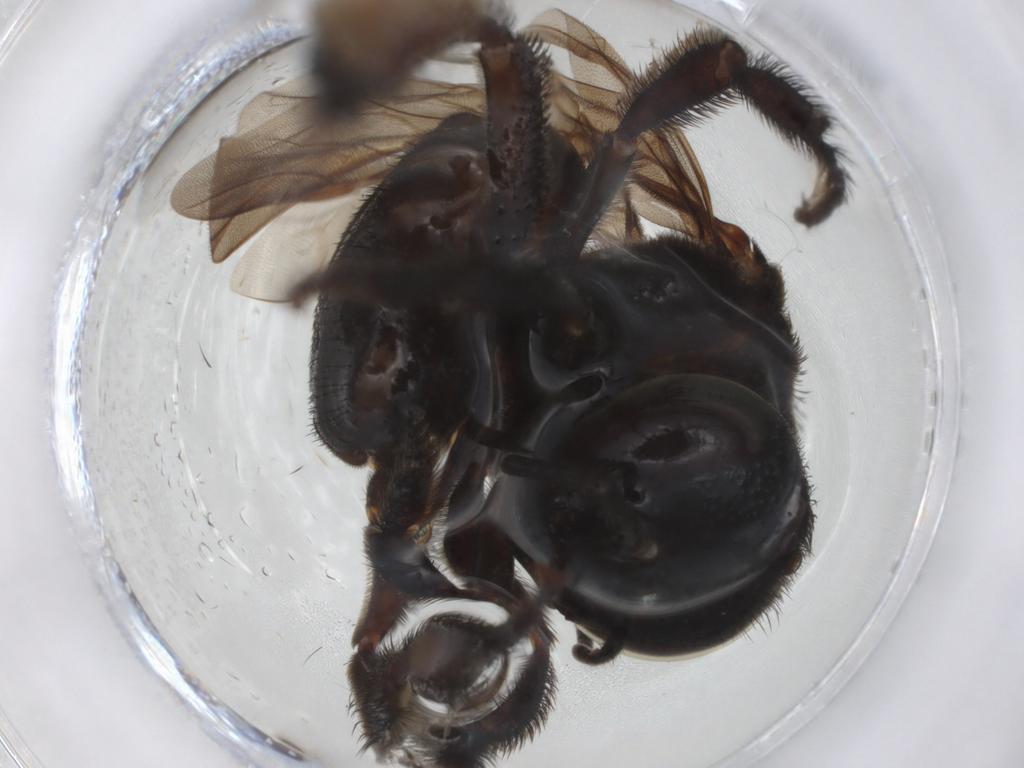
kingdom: Animalia
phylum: Arthropoda
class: Insecta
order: Hymenoptera
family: Apidae
